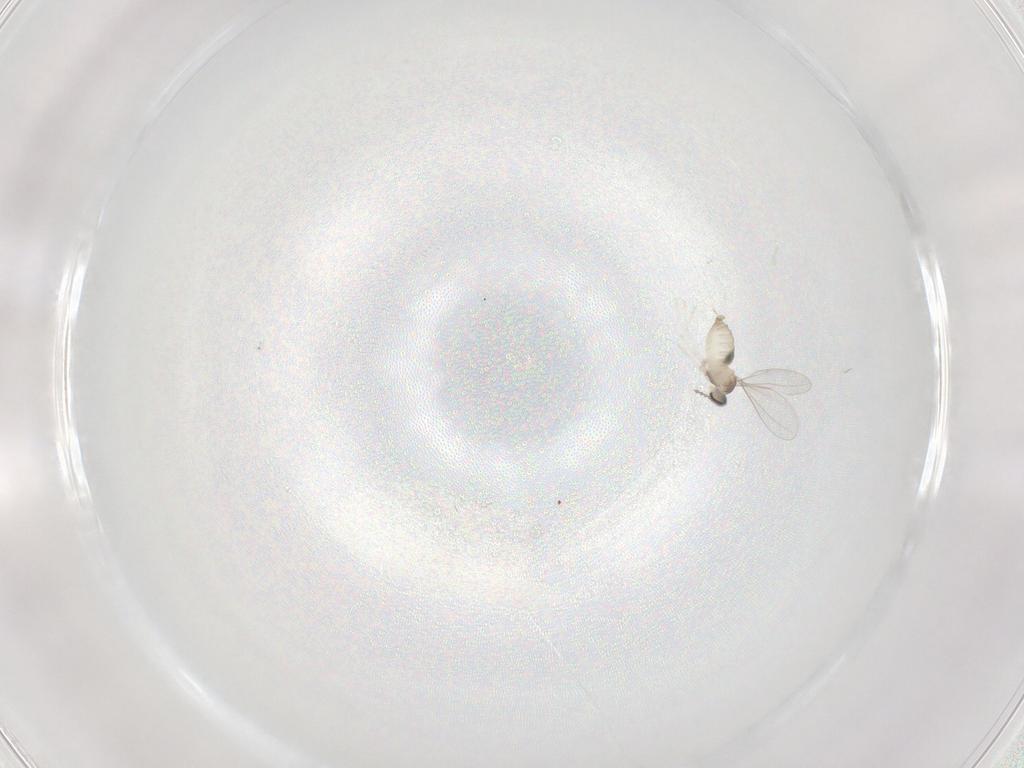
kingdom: Animalia
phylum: Arthropoda
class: Insecta
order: Diptera
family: Cecidomyiidae
